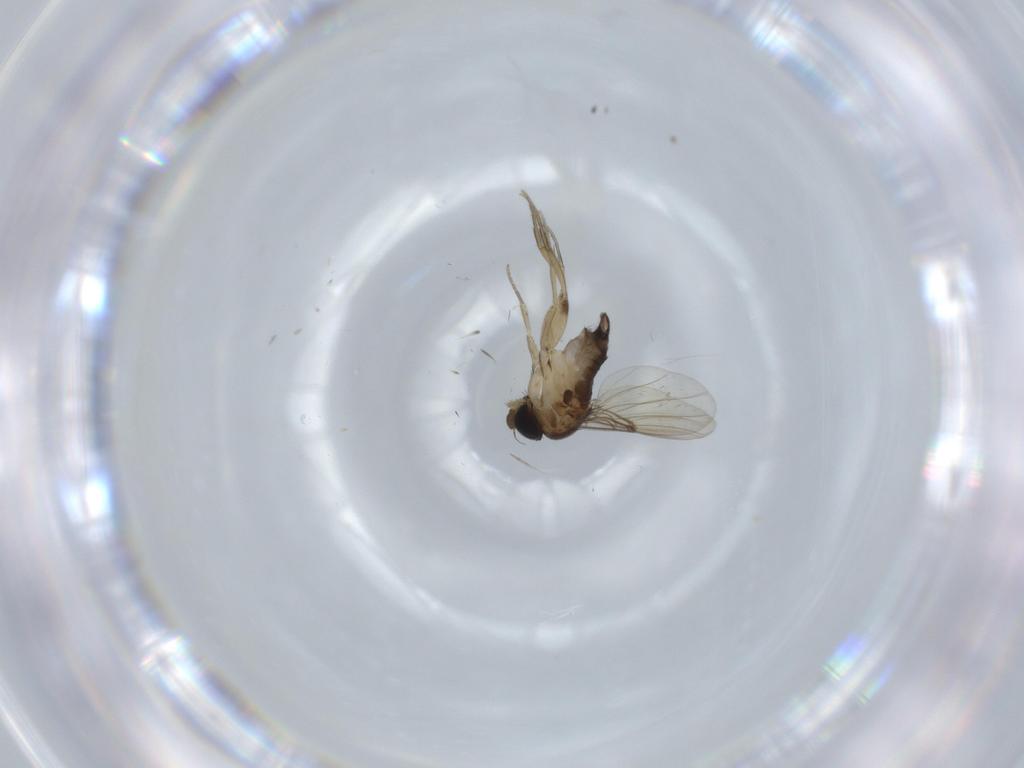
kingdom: Animalia
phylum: Arthropoda
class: Insecta
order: Diptera
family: Phoridae
